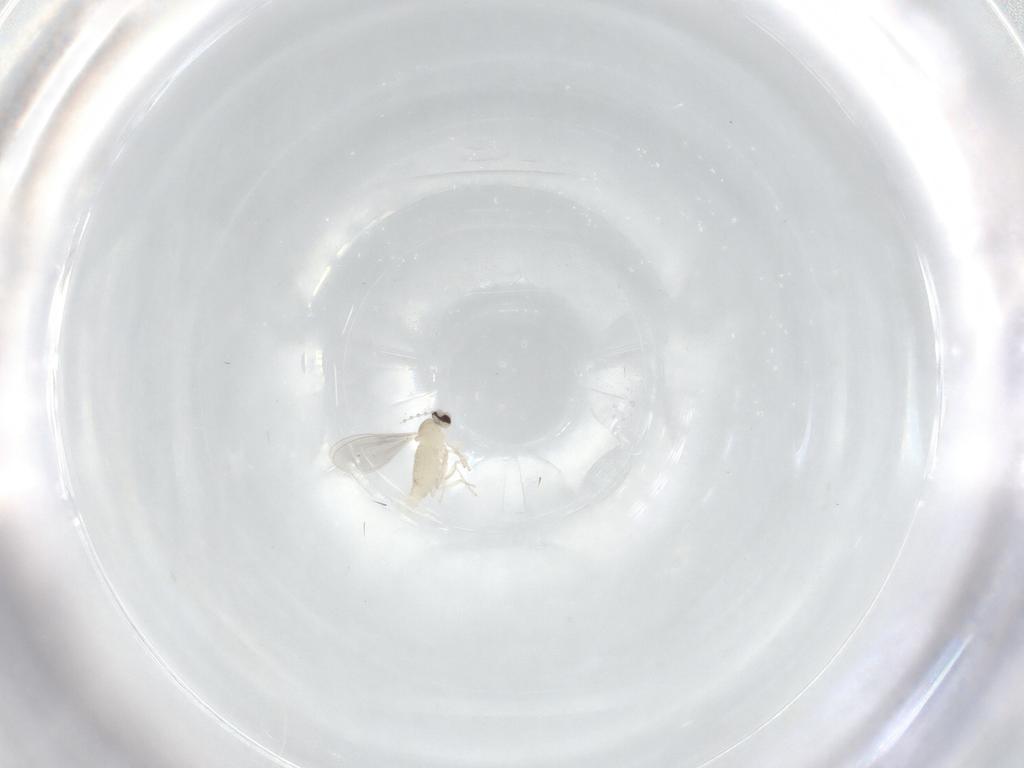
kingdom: Animalia
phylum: Arthropoda
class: Insecta
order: Diptera
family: Cecidomyiidae
